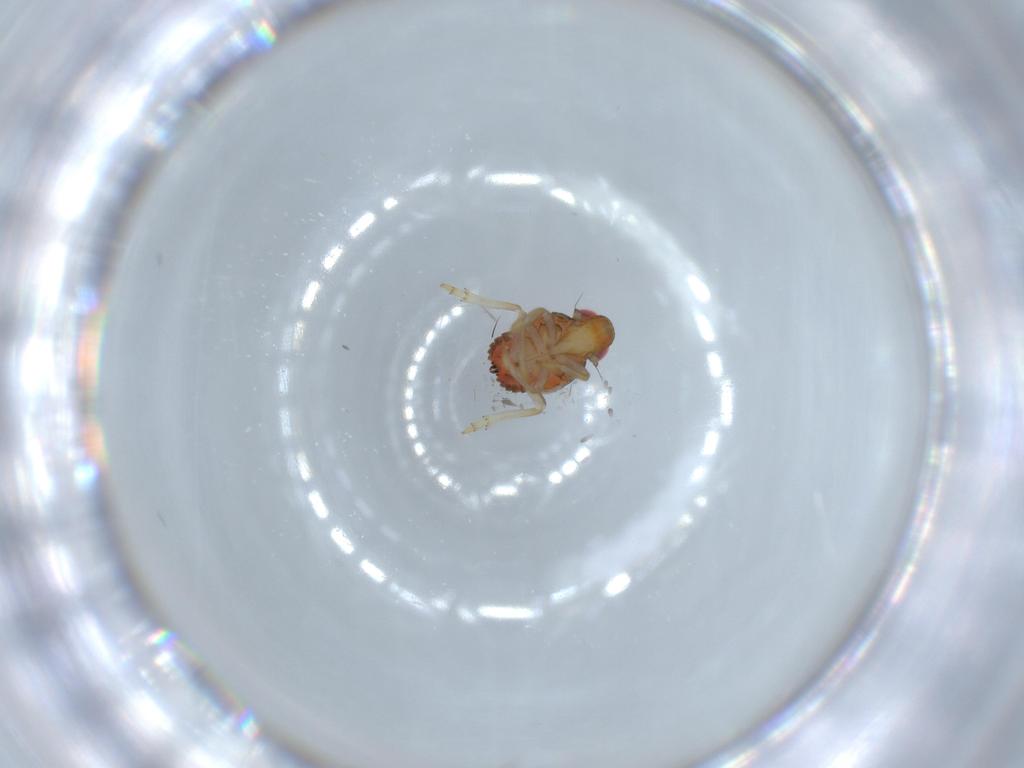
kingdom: Animalia
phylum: Arthropoda
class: Insecta
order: Hemiptera
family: Issidae
